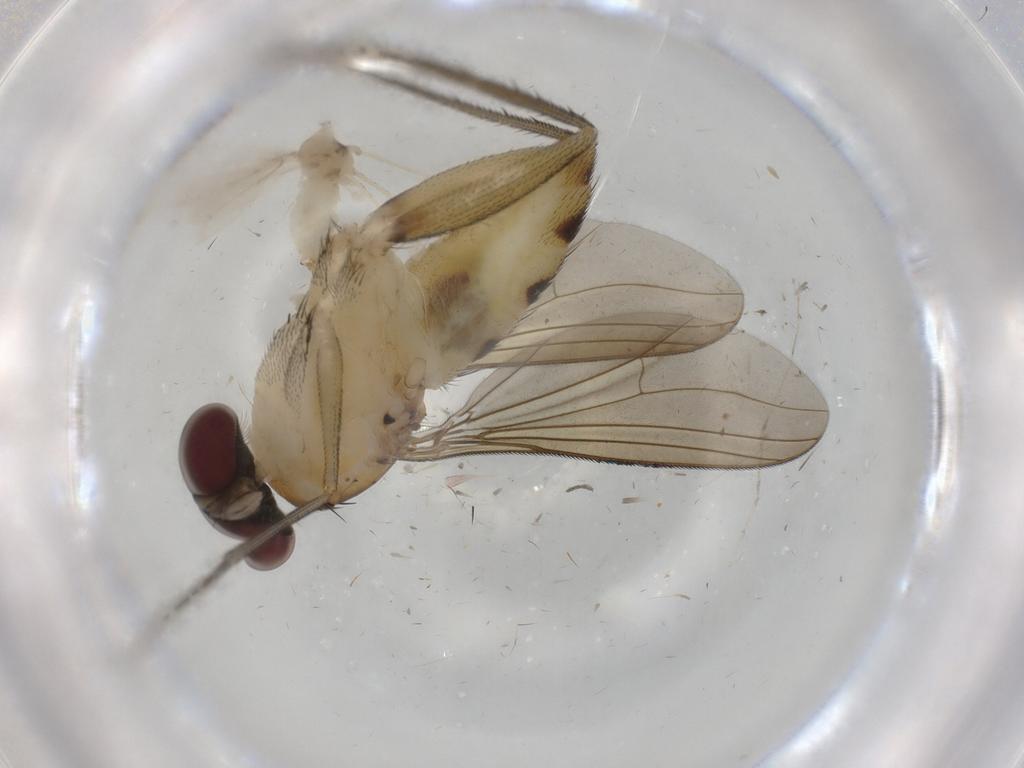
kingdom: Animalia
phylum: Arthropoda
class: Insecta
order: Diptera
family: Dolichopodidae
